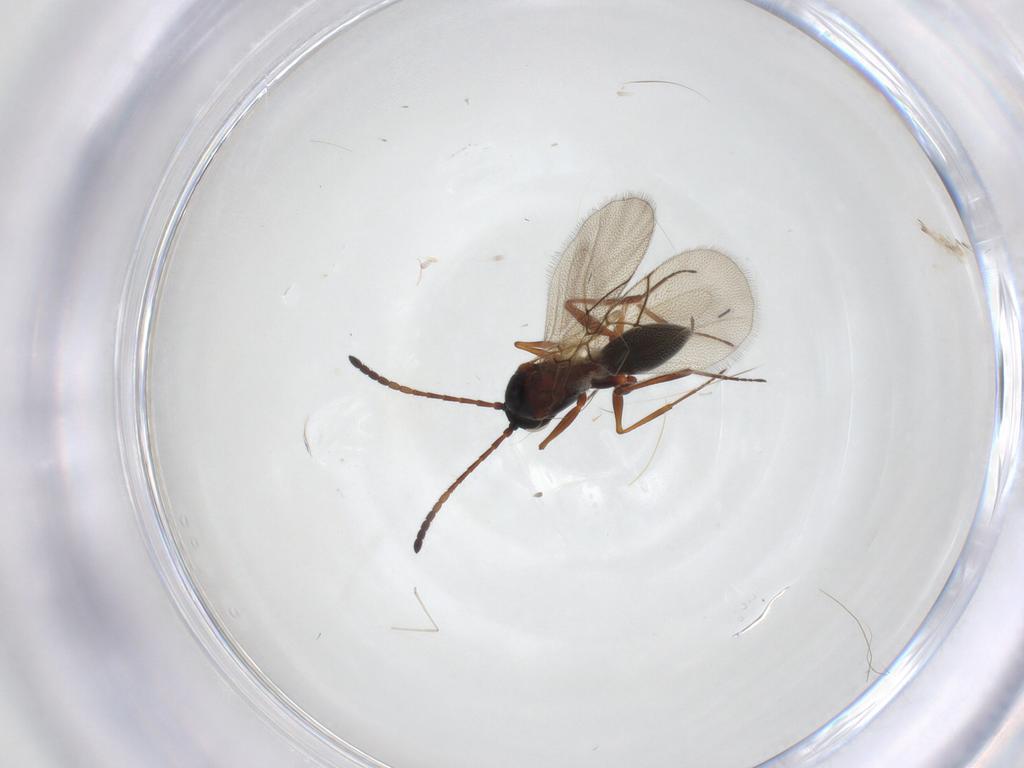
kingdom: Animalia
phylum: Arthropoda
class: Insecta
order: Hymenoptera
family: Figitidae
